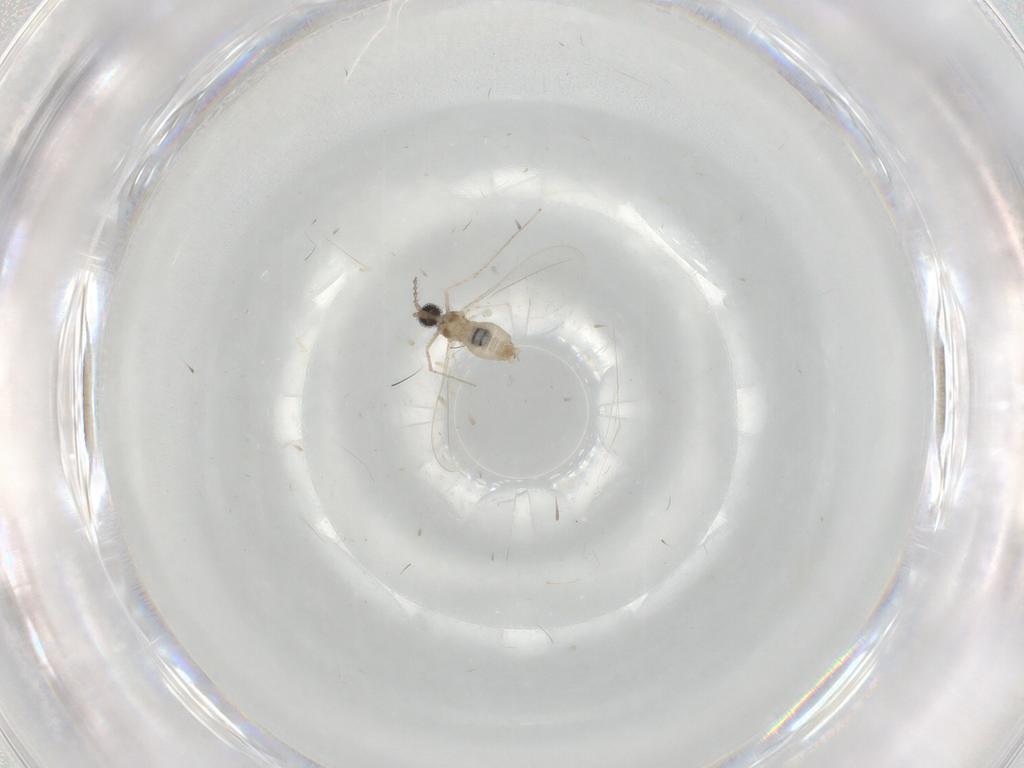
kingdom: Animalia
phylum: Arthropoda
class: Insecta
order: Diptera
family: Cecidomyiidae
